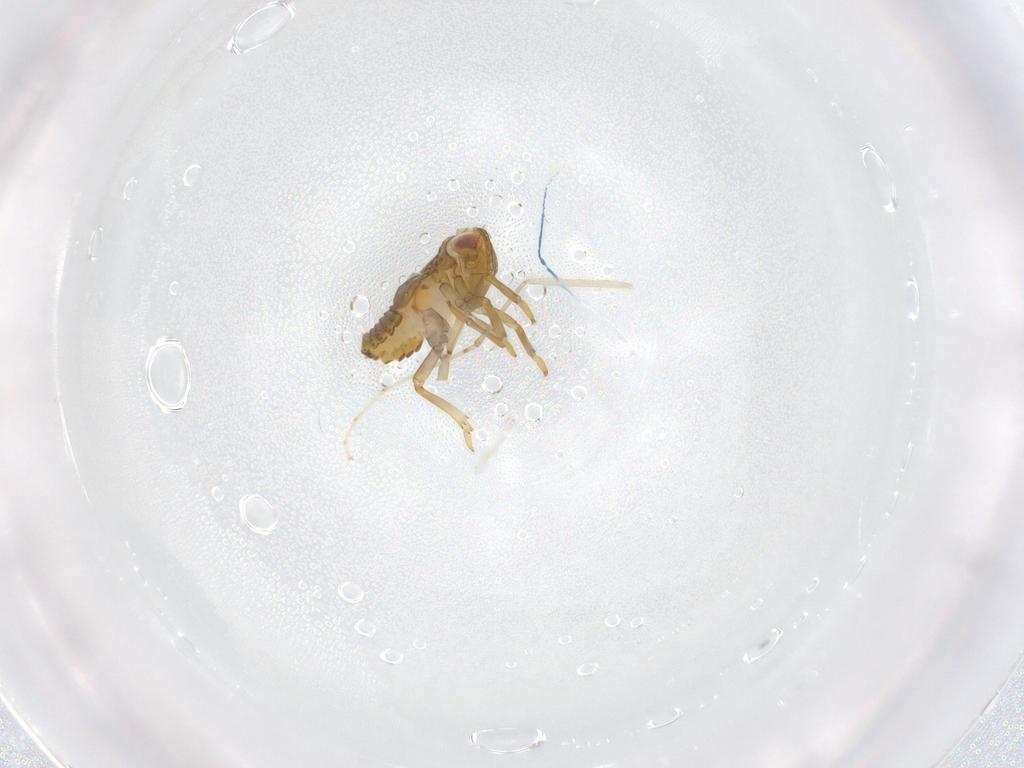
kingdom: Animalia
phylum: Arthropoda
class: Insecta
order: Hemiptera
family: Issidae
